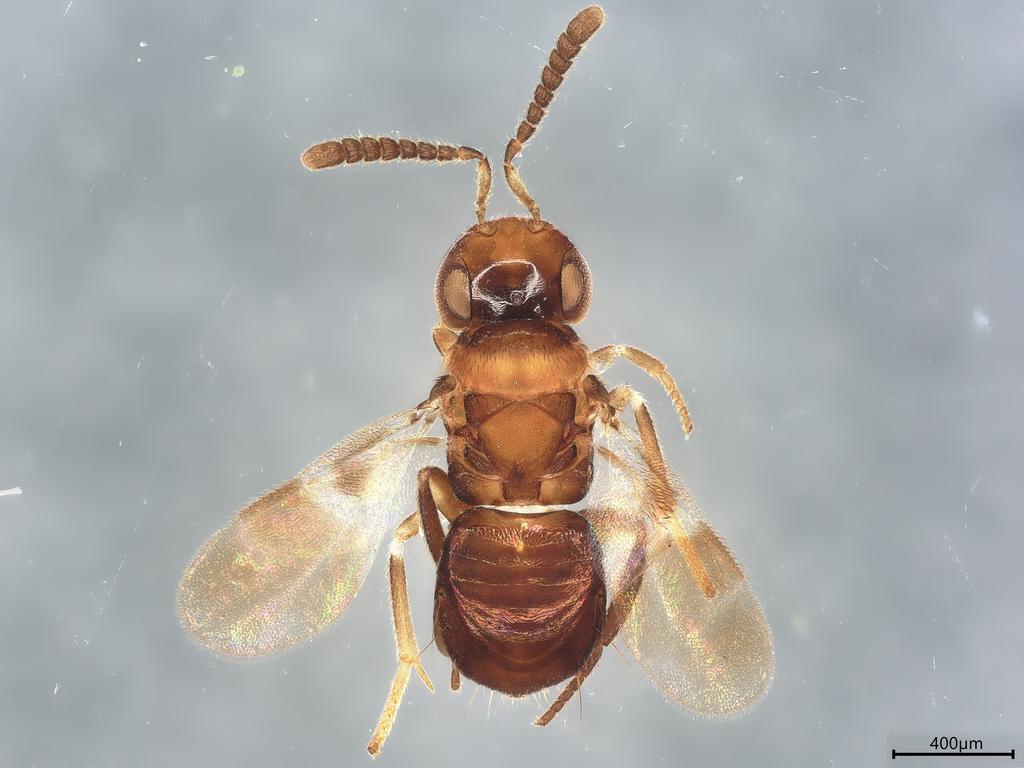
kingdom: Animalia
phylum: Arthropoda
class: Insecta
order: Hymenoptera
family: Encyrtidae
